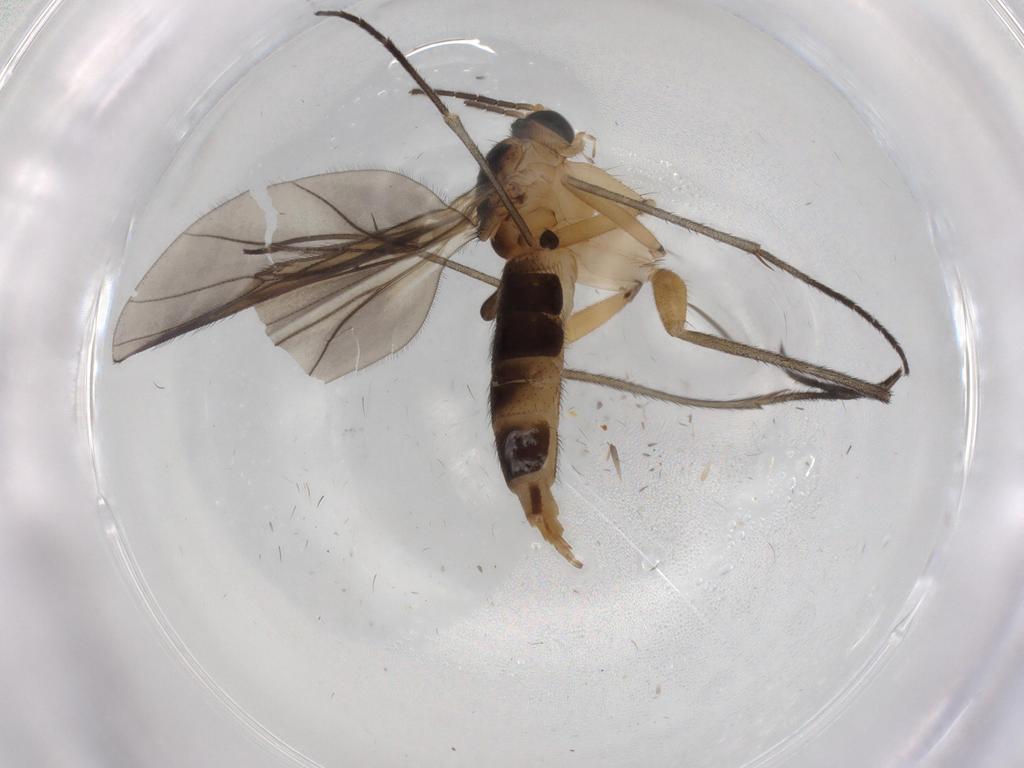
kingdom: Animalia
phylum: Arthropoda
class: Insecta
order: Diptera
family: Sciaridae
